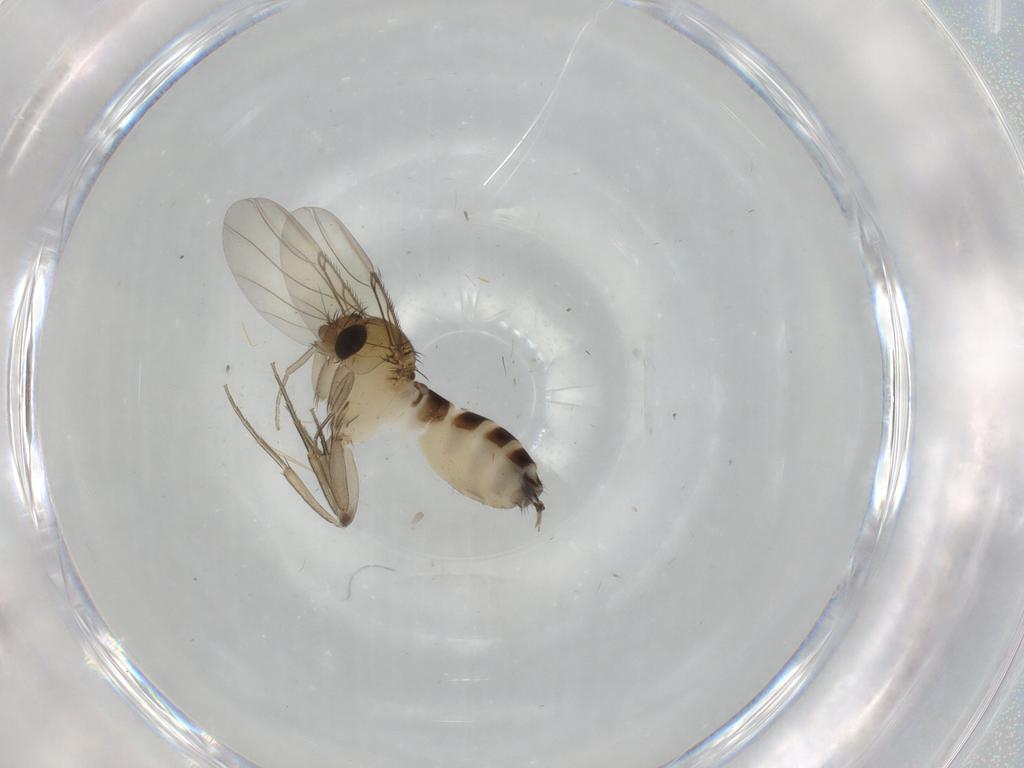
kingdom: Animalia
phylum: Arthropoda
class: Insecta
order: Diptera
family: Phoridae
